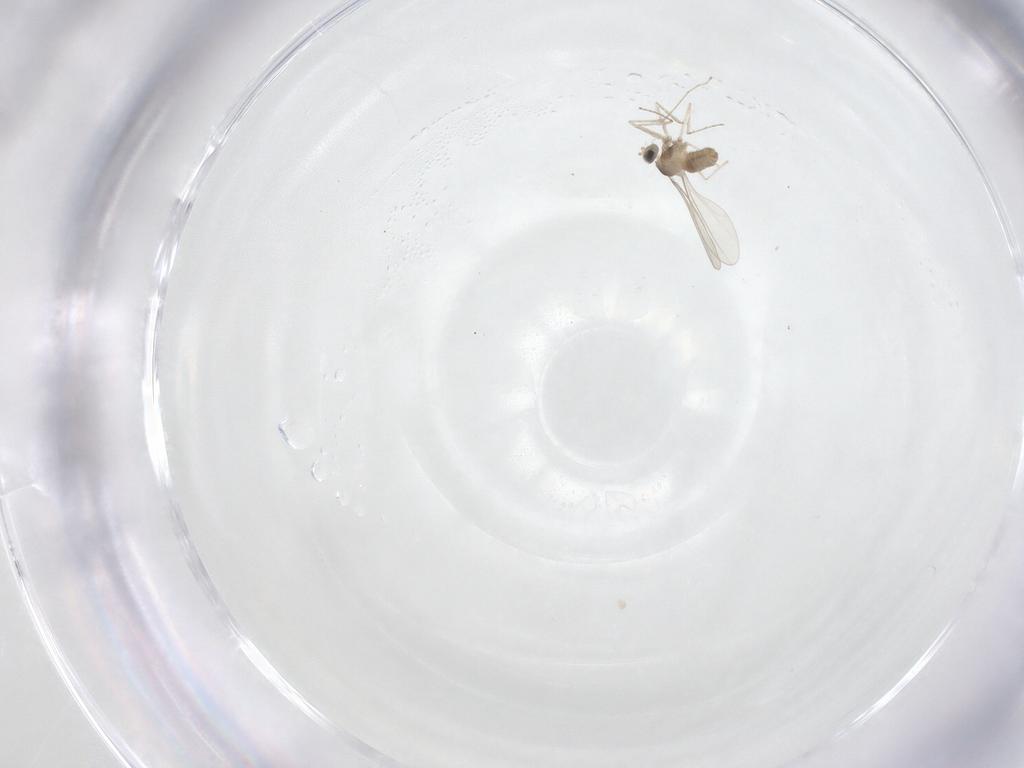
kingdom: Animalia
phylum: Arthropoda
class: Insecta
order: Diptera
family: Cecidomyiidae
